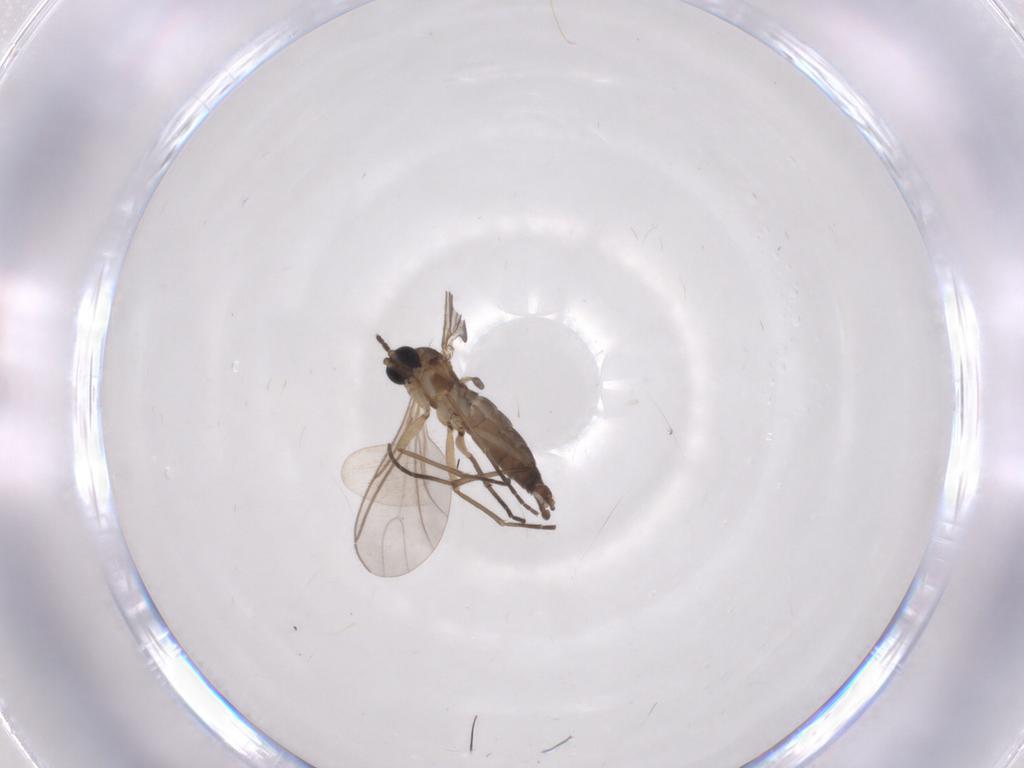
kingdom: Animalia
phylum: Arthropoda
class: Insecta
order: Diptera
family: Sciaridae
